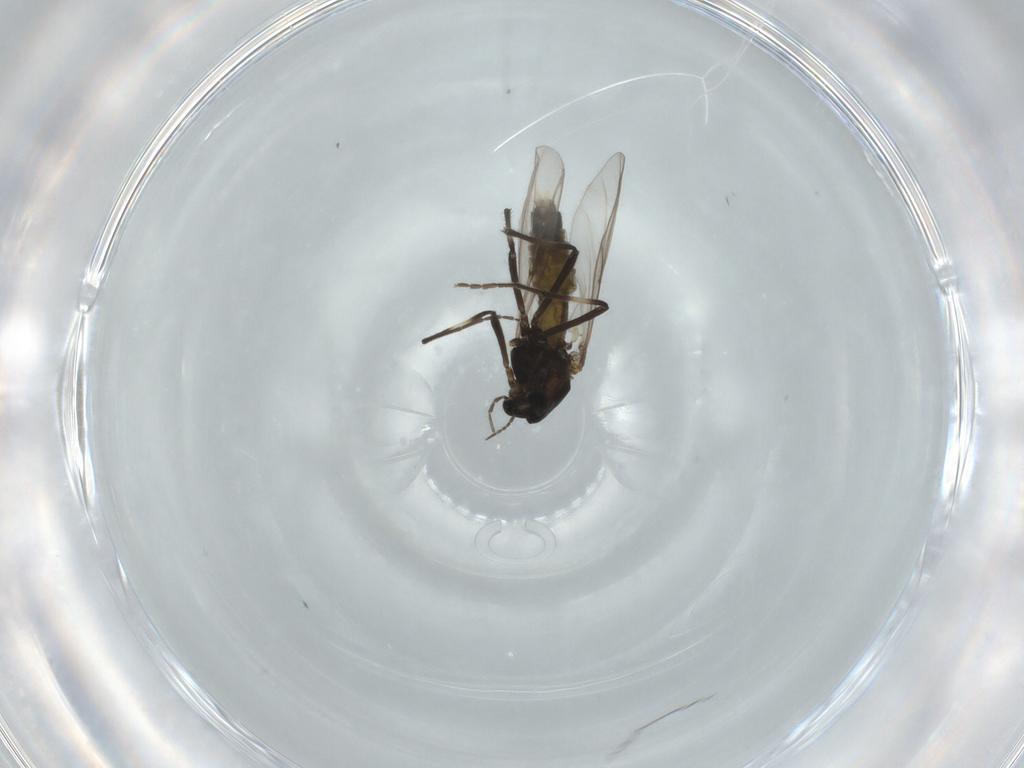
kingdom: Animalia
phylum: Arthropoda
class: Insecta
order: Diptera
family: Chironomidae
